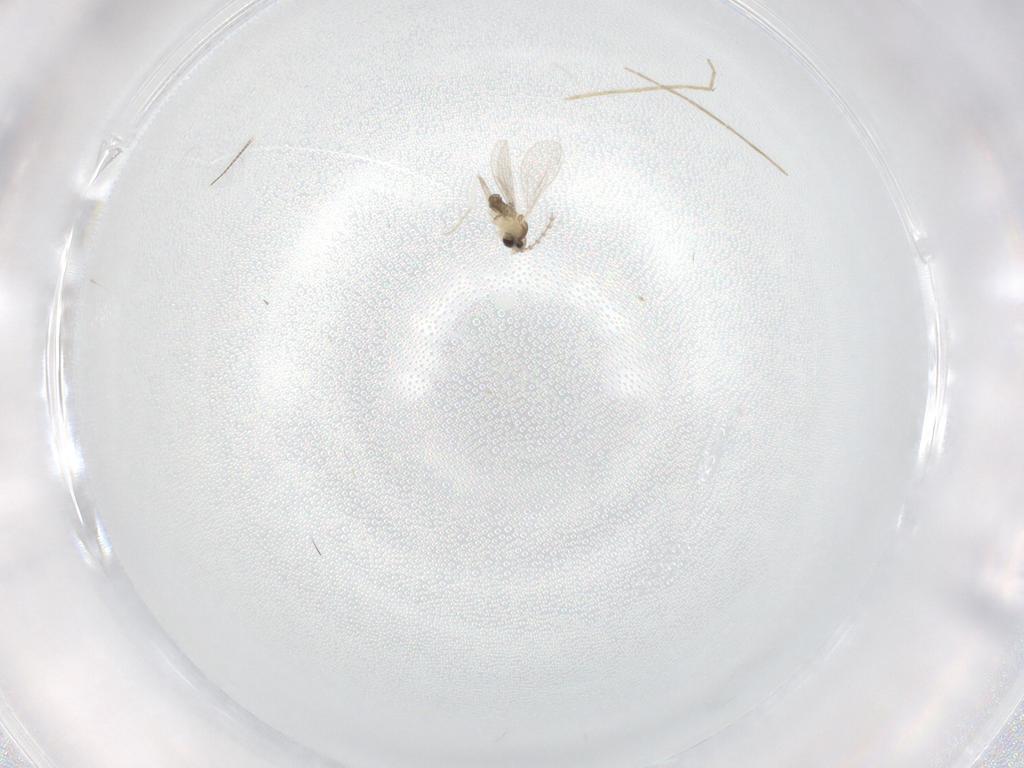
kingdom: Animalia
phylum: Arthropoda
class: Insecta
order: Diptera
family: Cecidomyiidae
